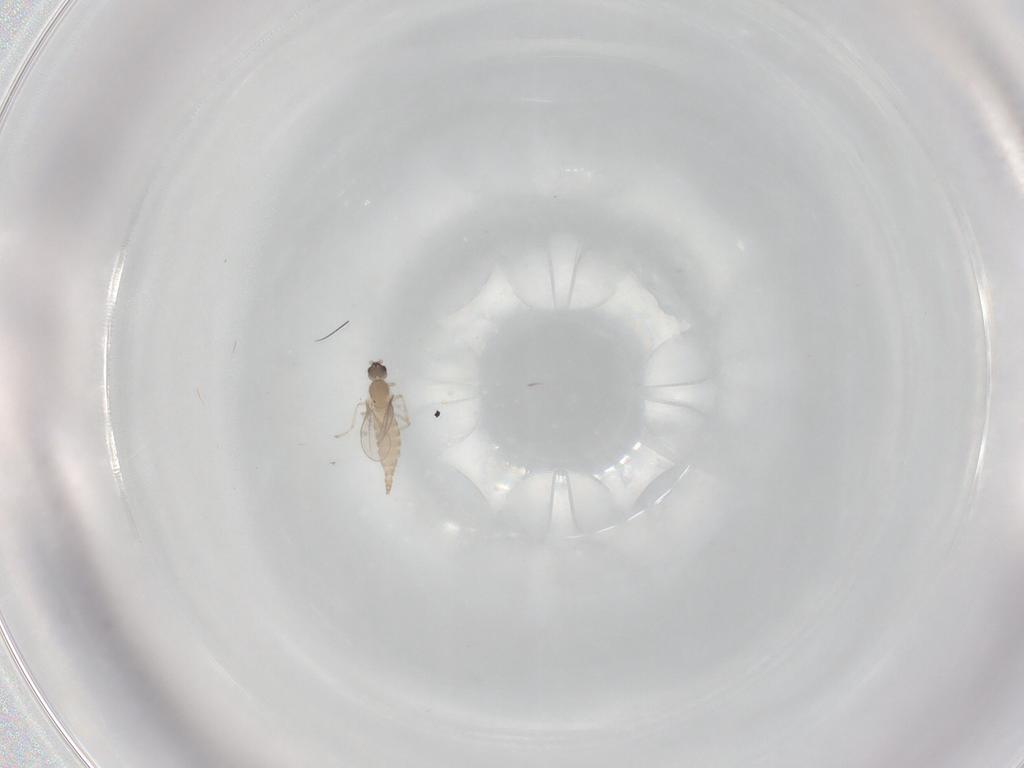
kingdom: Animalia
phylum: Arthropoda
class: Insecta
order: Diptera
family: Cecidomyiidae
